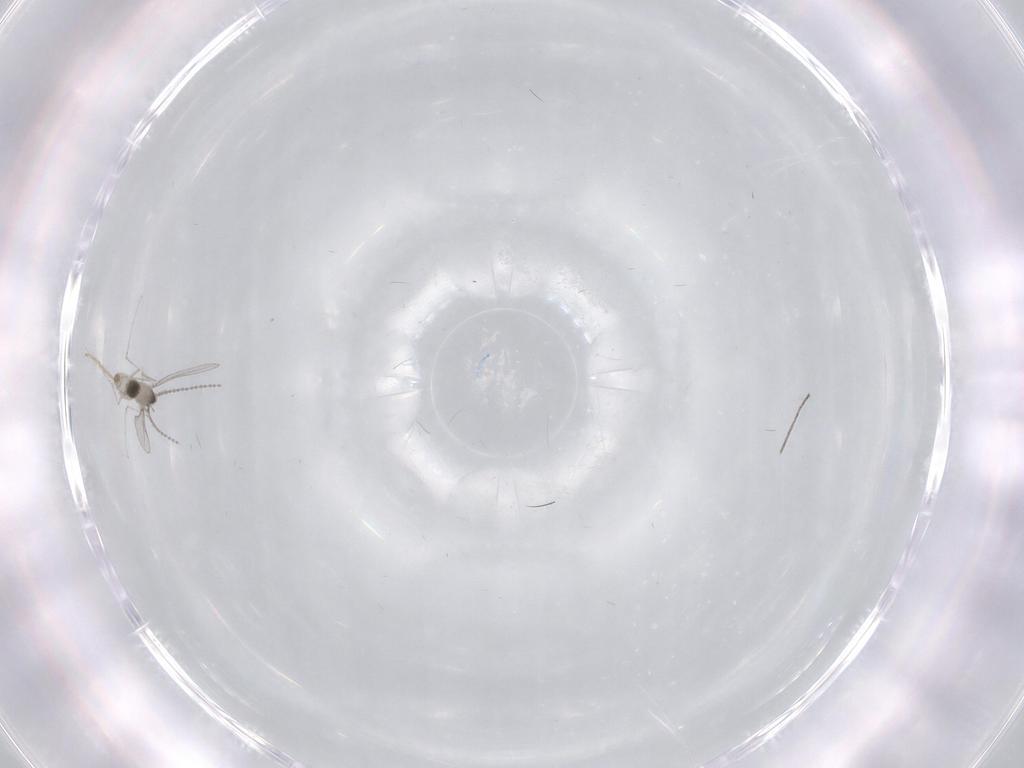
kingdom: Animalia
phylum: Arthropoda
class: Insecta
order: Diptera
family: Cecidomyiidae
